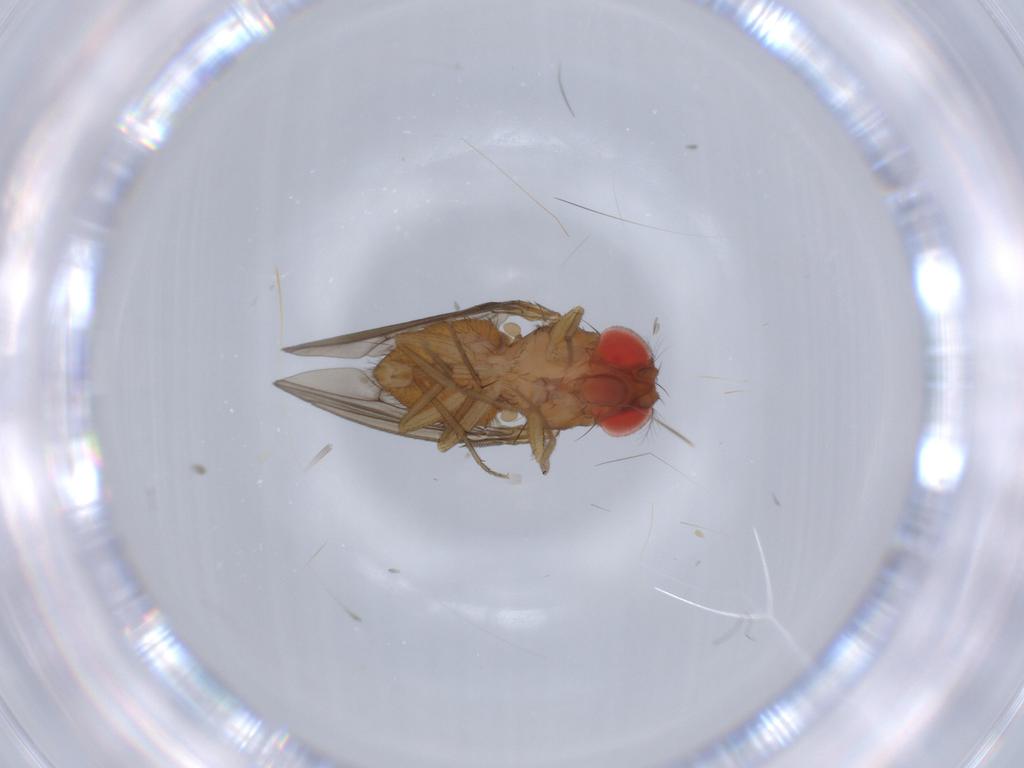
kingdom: Animalia
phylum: Arthropoda
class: Insecta
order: Diptera
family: Drosophilidae
